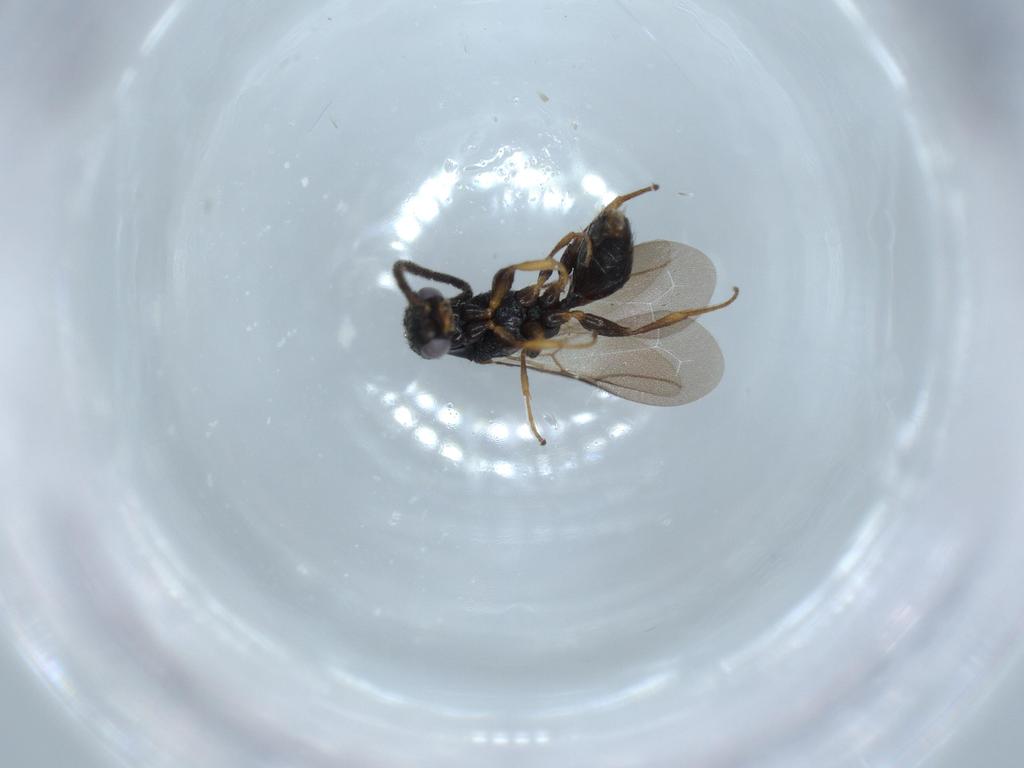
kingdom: Animalia
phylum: Arthropoda
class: Insecta
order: Hymenoptera
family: Bethylidae
